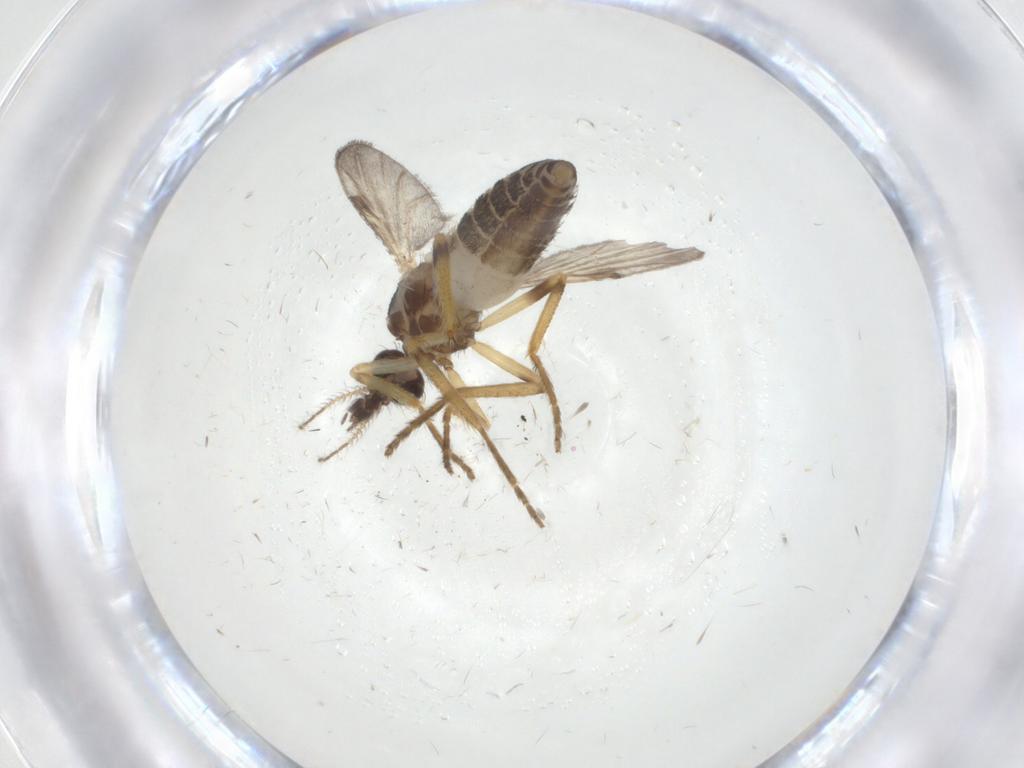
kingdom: Animalia
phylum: Arthropoda
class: Insecta
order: Diptera
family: Ceratopogonidae
